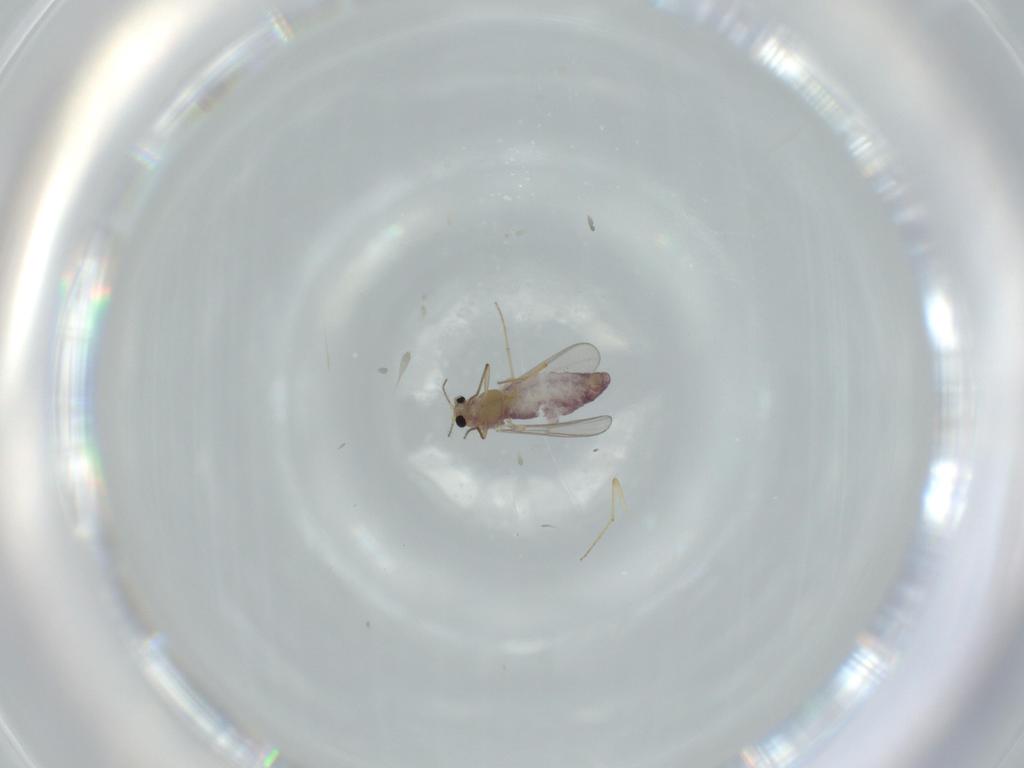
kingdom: Animalia
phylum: Arthropoda
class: Insecta
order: Diptera
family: Chironomidae
